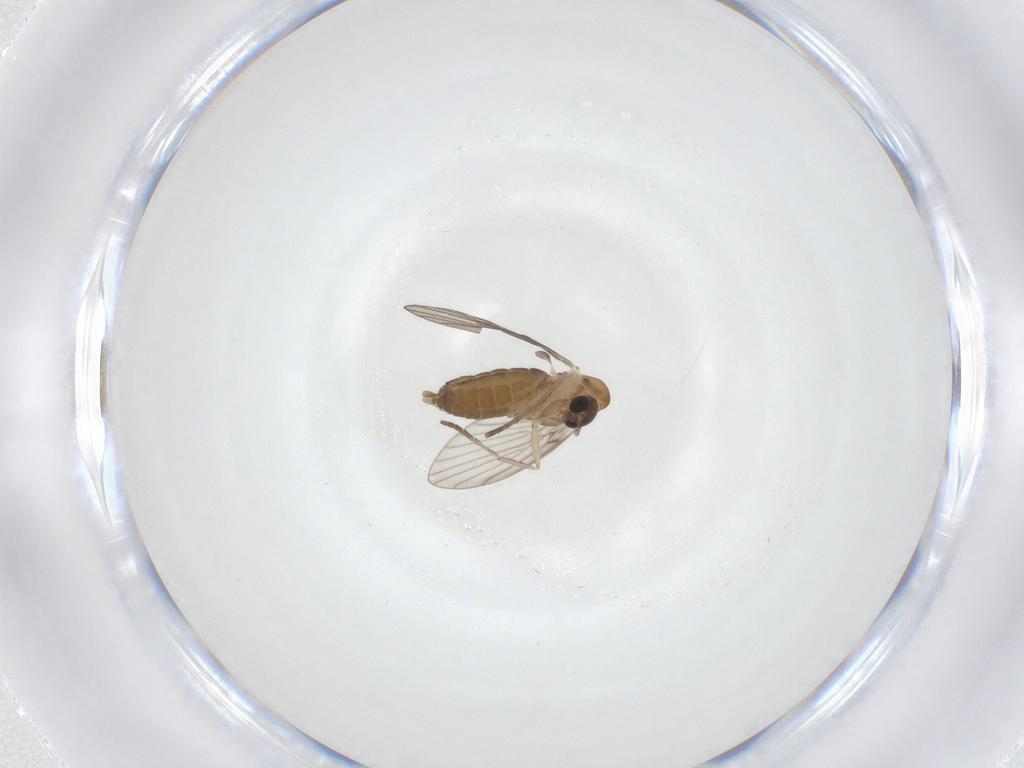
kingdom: Animalia
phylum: Arthropoda
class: Insecta
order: Diptera
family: Ditomyiidae
